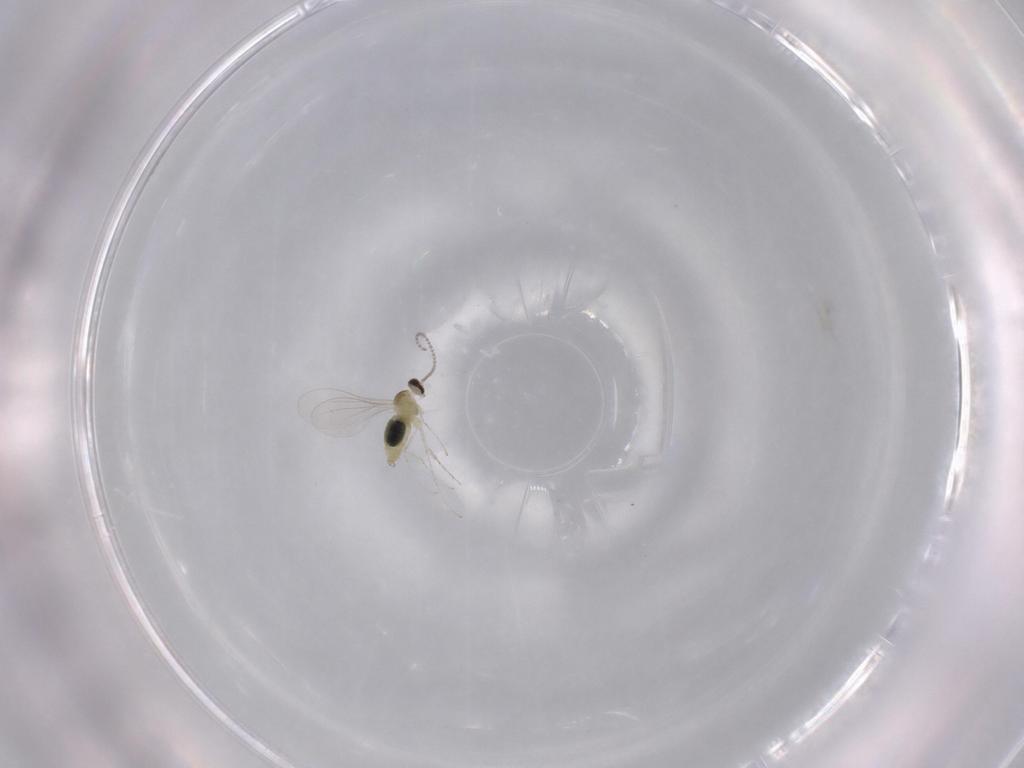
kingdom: Animalia
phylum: Arthropoda
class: Insecta
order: Diptera
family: Cecidomyiidae
